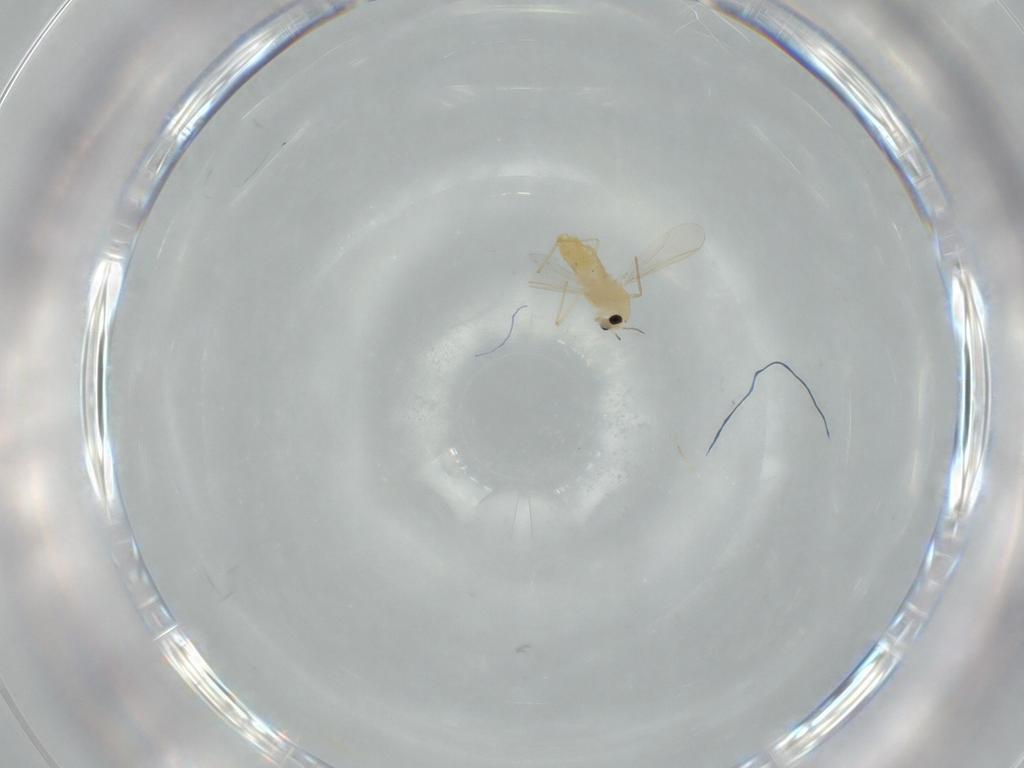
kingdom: Animalia
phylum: Arthropoda
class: Insecta
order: Diptera
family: Chironomidae
